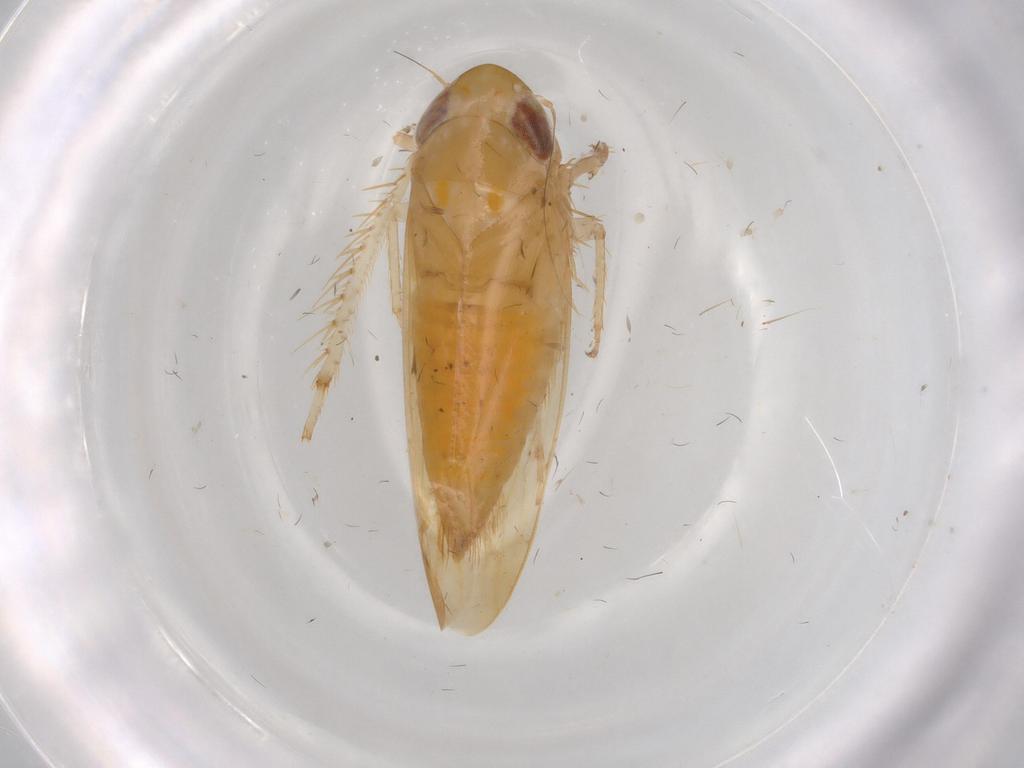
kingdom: Animalia
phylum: Arthropoda
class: Insecta
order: Hemiptera
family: Cicadellidae
